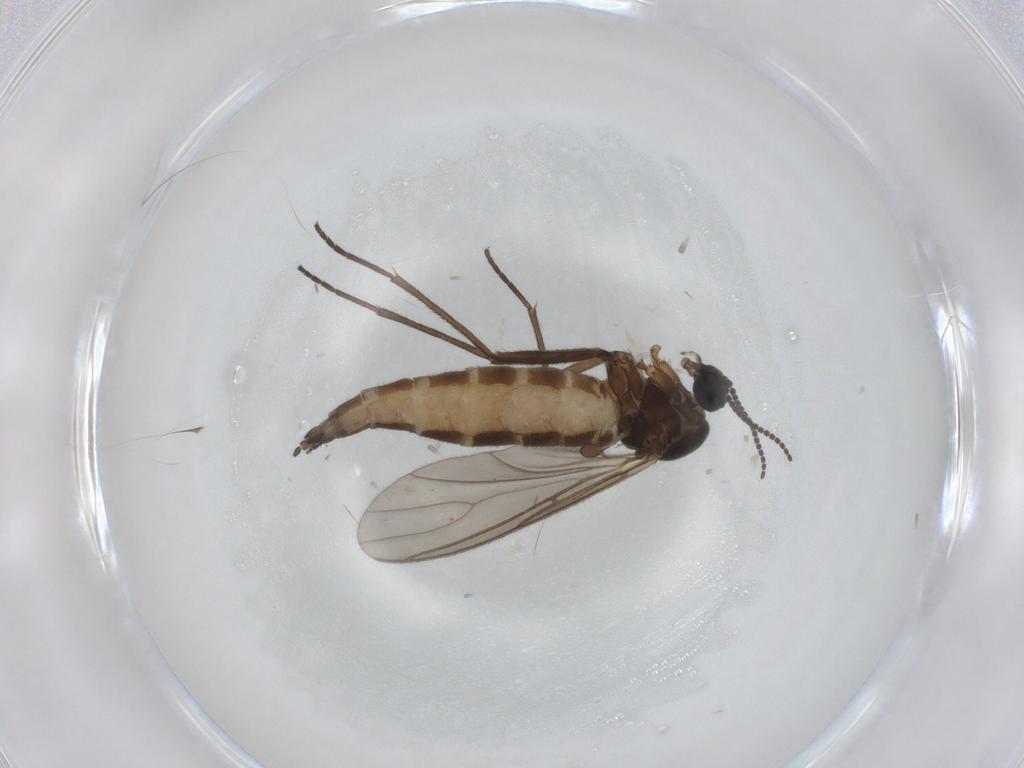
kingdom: Animalia
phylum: Arthropoda
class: Insecta
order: Diptera
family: Sciaridae
